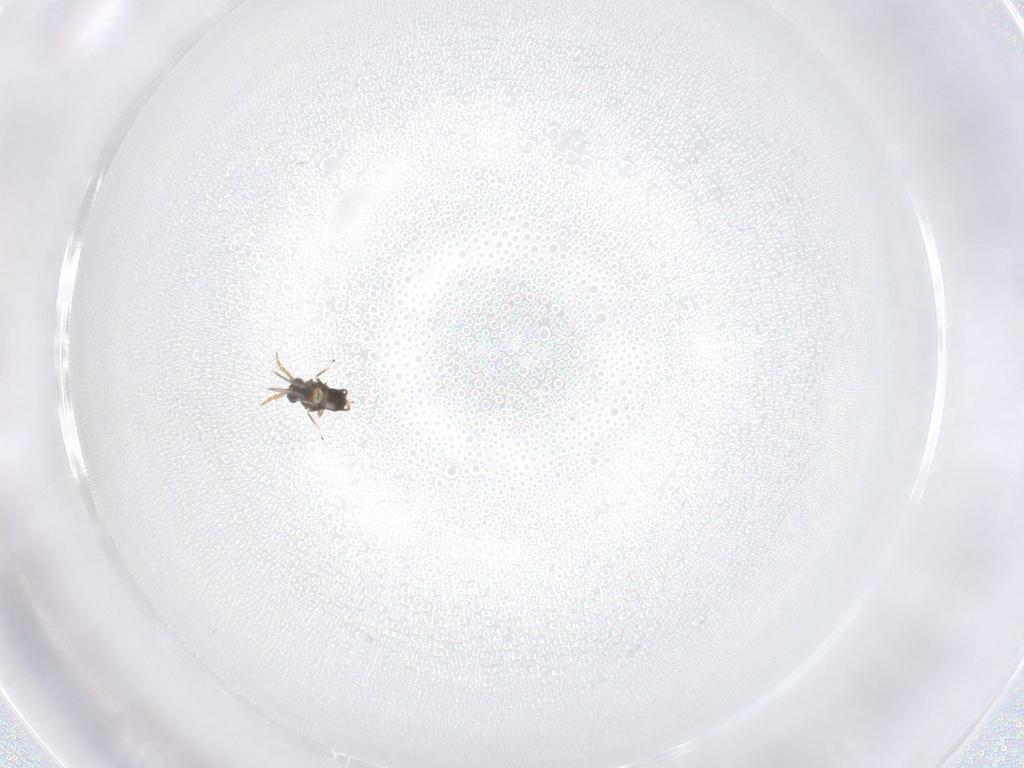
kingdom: Animalia
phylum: Arthropoda
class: Insecta
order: Hymenoptera
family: Aphelinidae
